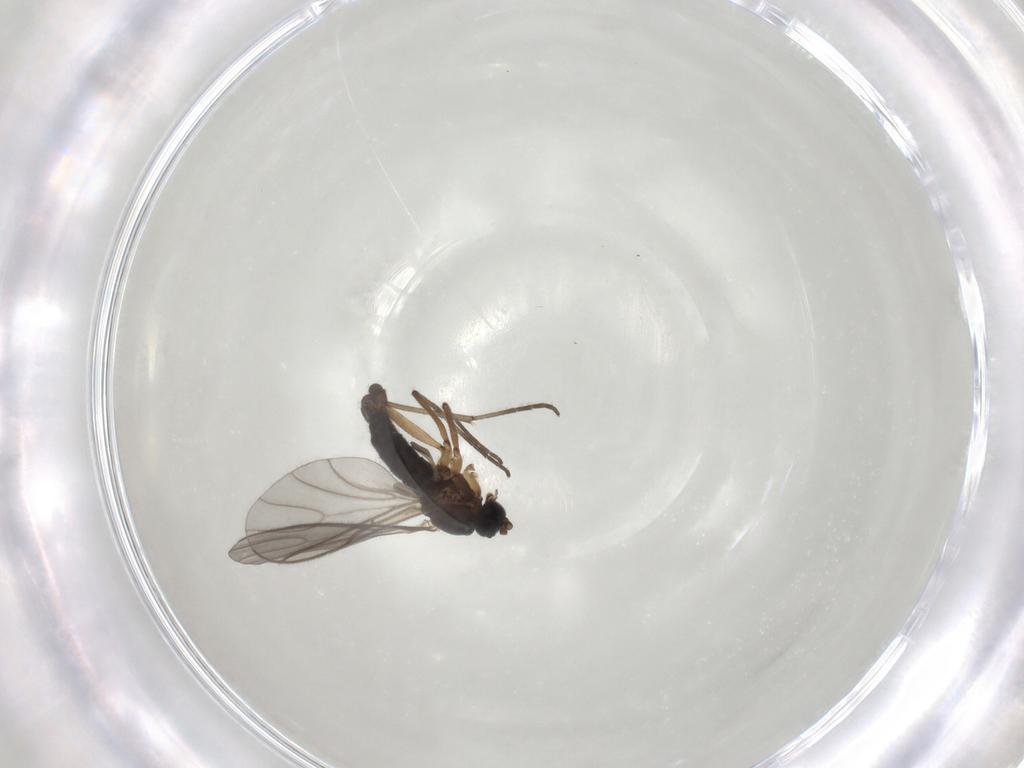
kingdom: Animalia
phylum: Arthropoda
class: Insecta
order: Diptera
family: Sciaridae
